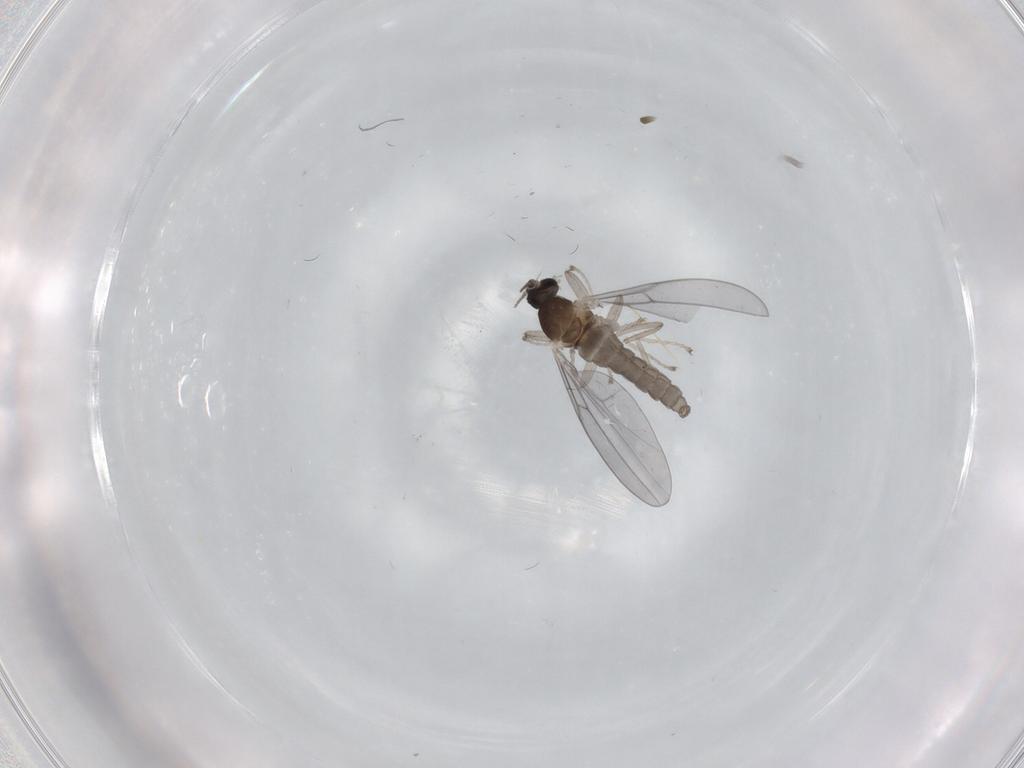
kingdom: Animalia
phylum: Arthropoda
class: Insecta
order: Diptera
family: Cecidomyiidae
